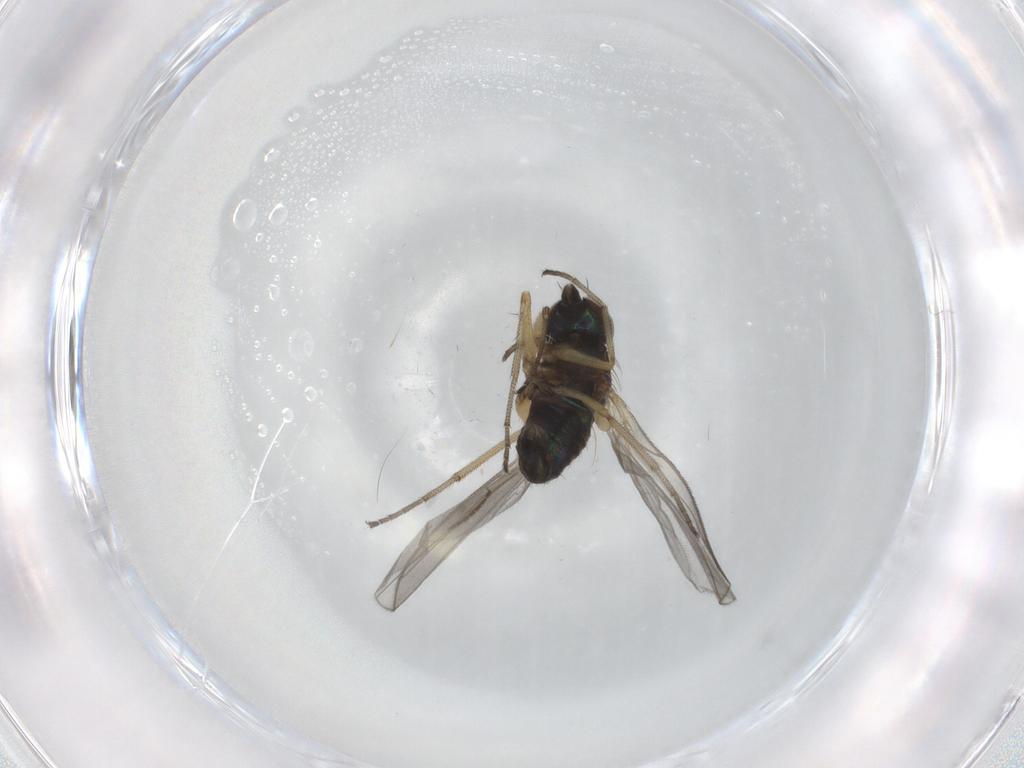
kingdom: Animalia
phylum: Arthropoda
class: Insecta
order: Diptera
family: Dolichopodidae
